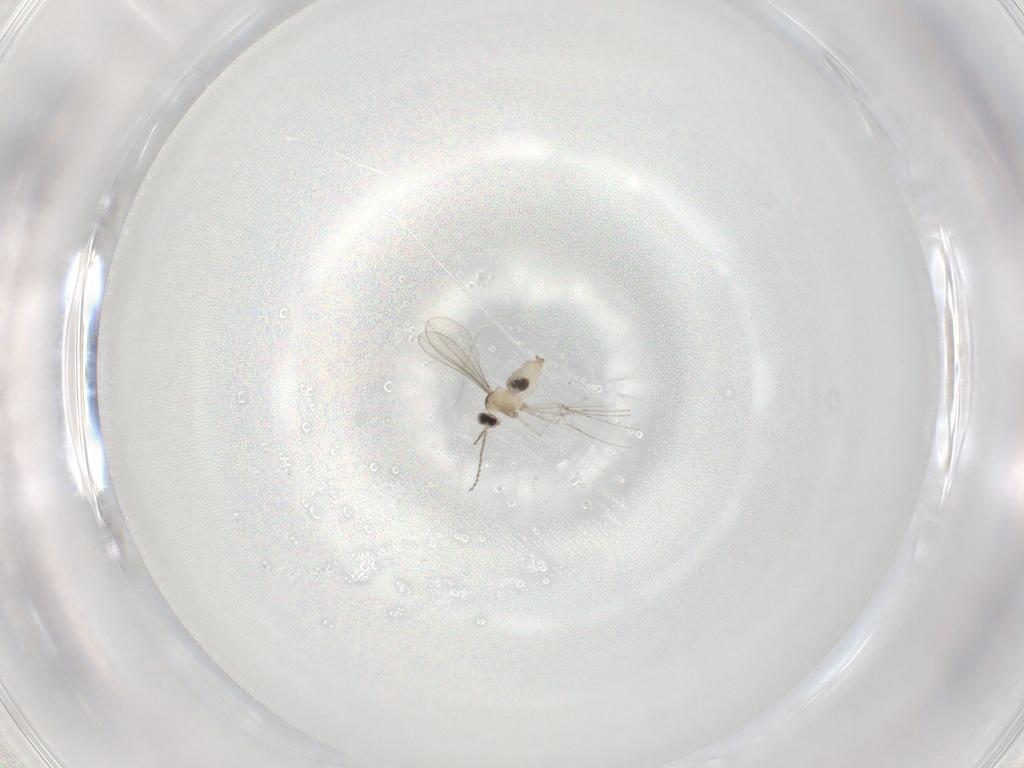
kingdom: Animalia
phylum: Arthropoda
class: Insecta
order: Diptera
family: Cecidomyiidae
